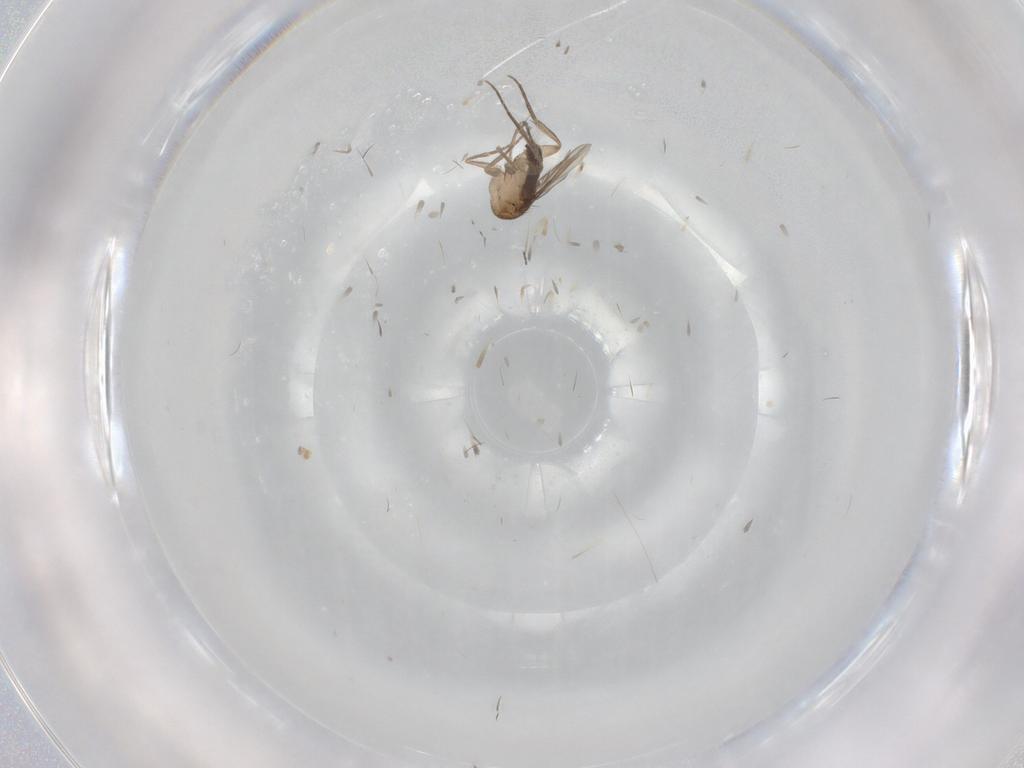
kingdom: Animalia
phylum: Arthropoda
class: Insecta
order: Diptera
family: Phoridae
